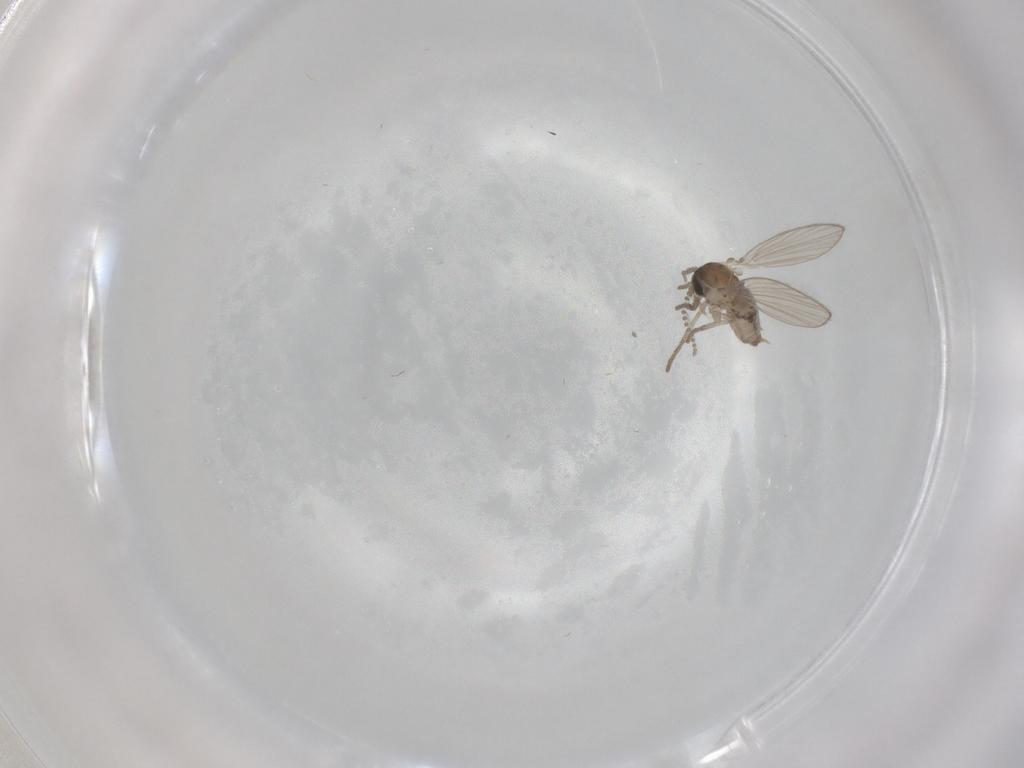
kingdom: Animalia
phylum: Arthropoda
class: Insecta
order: Diptera
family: Psychodidae
